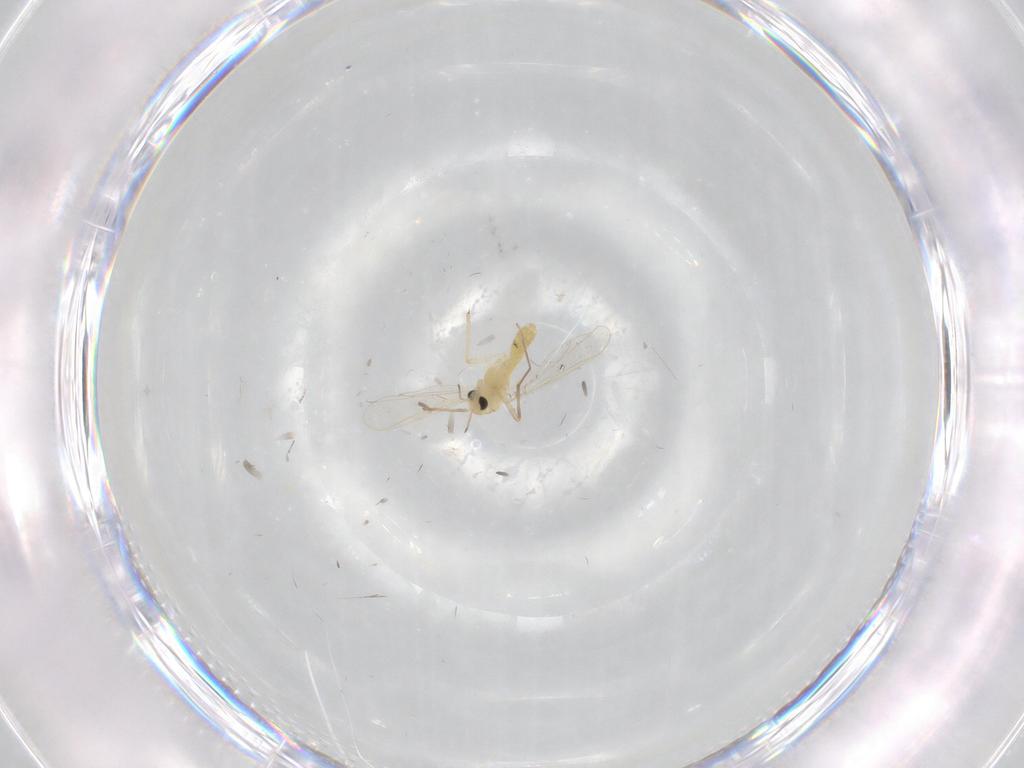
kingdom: Animalia
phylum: Arthropoda
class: Insecta
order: Diptera
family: Chironomidae
